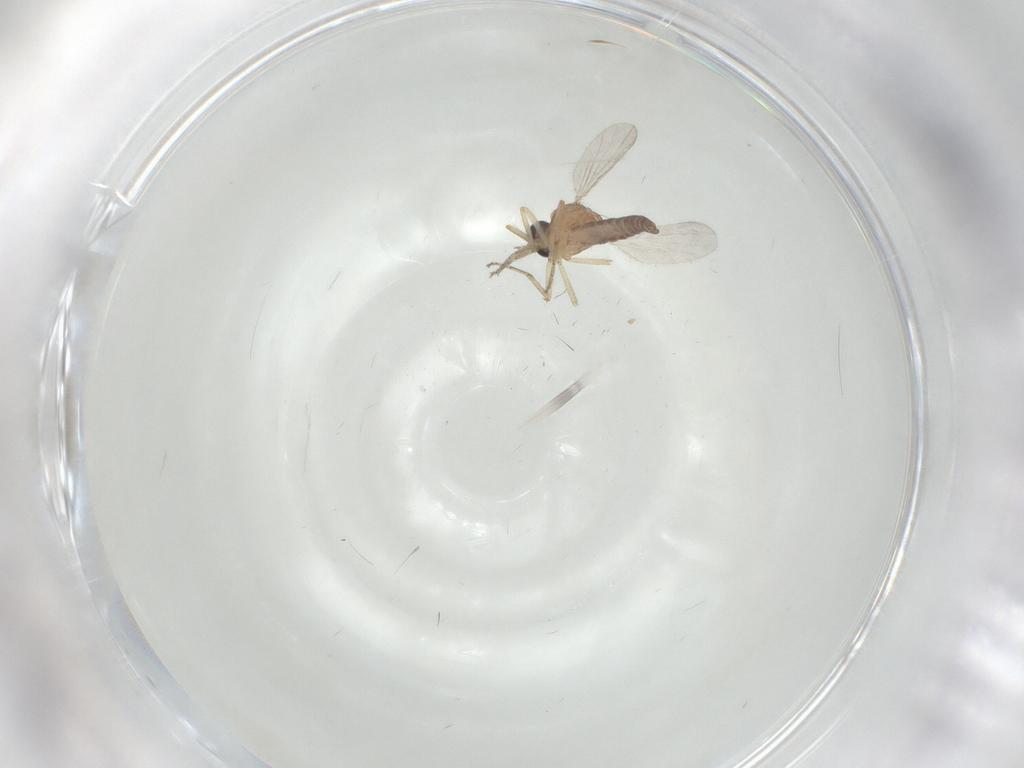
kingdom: Animalia
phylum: Arthropoda
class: Insecta
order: Diptera
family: Ceratopogonidae
